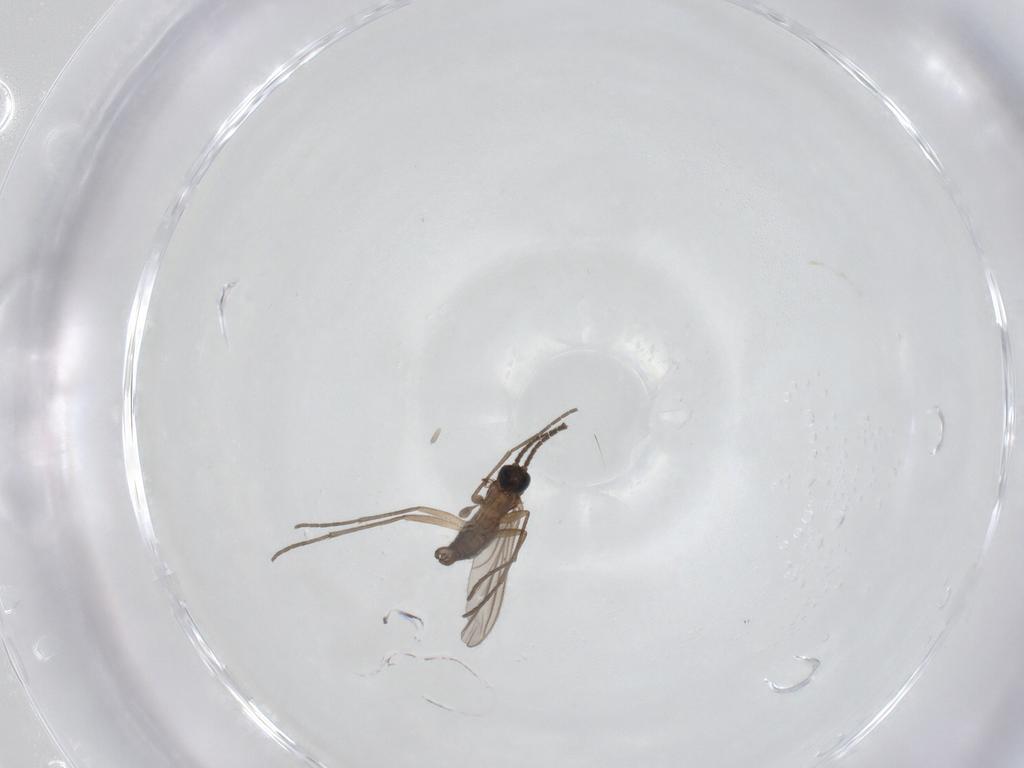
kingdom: Animalia
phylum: Arthropoda
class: Insecta
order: Diptera
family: Sciaridae
